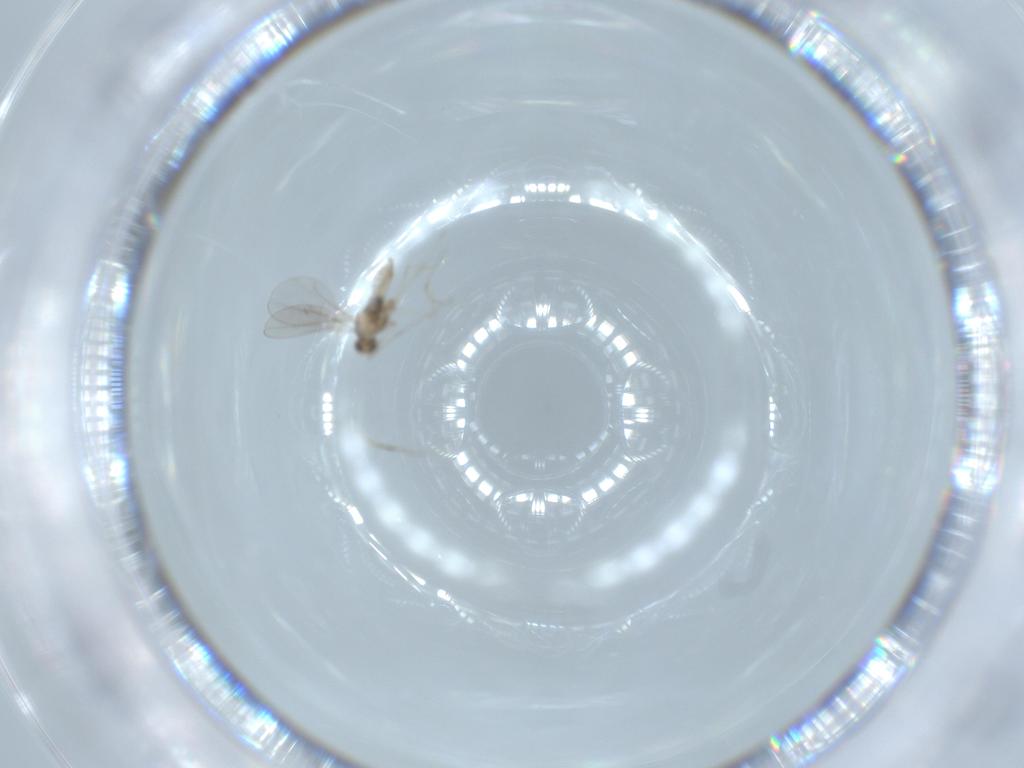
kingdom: Animalia
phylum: Arthropoda
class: Insecta
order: Diptera
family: Cecidomyiidae
